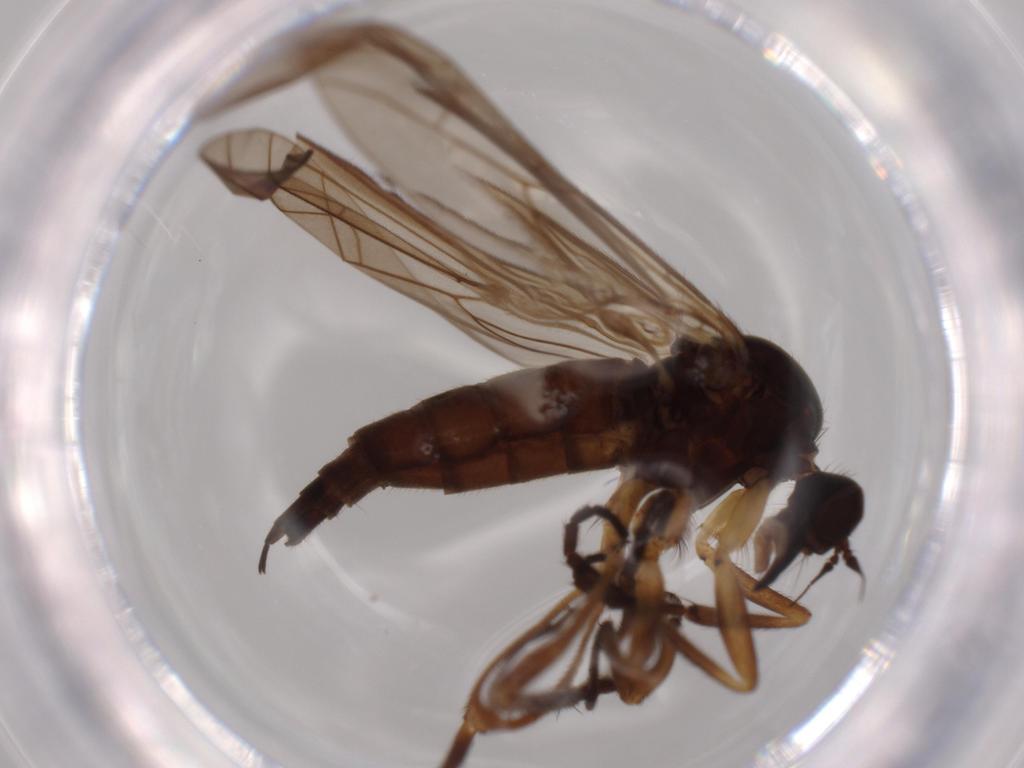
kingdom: Animalia
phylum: Arthropoda
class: Insecta
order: Diptera
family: Empididae
